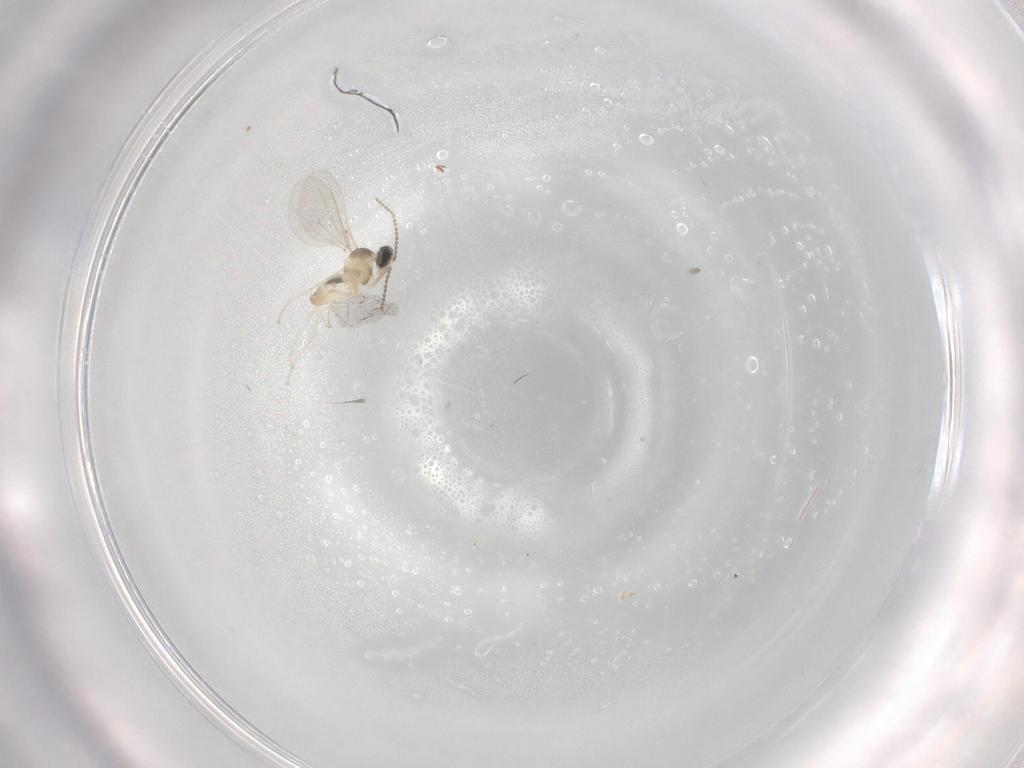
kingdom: Animalia
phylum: Arthropoda
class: Insecta
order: Diptera
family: Cecidomyiidae
